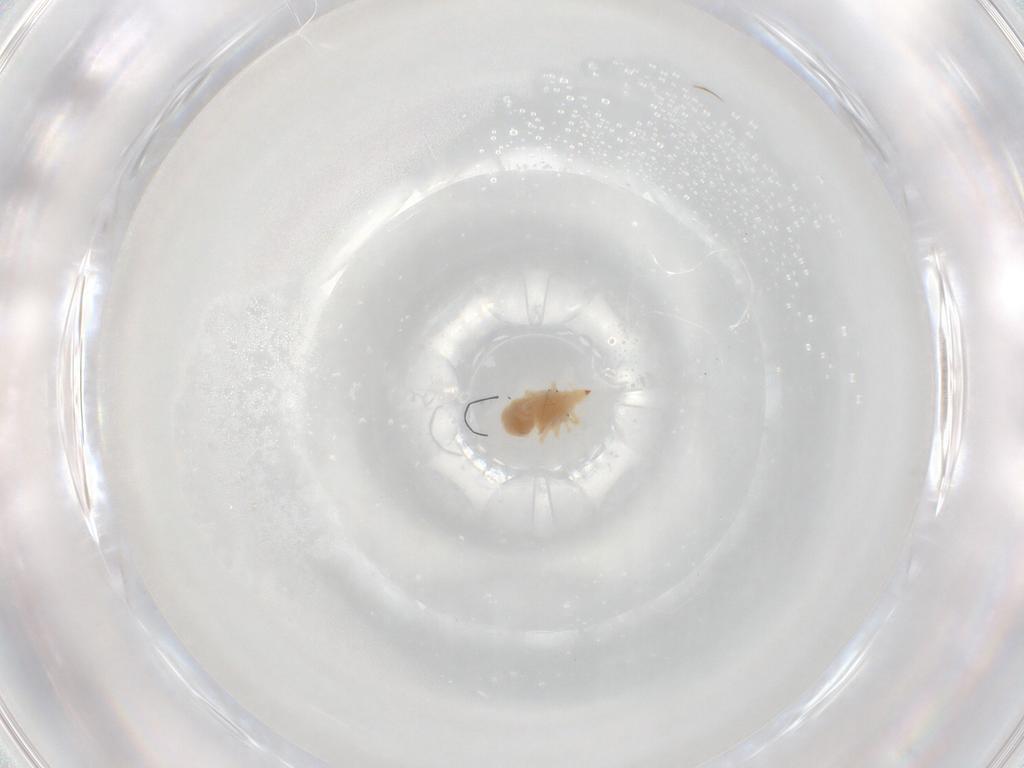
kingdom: Animalia
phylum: Arthropoda
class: Arachnida
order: Trombidiformes
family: Bdellidae
